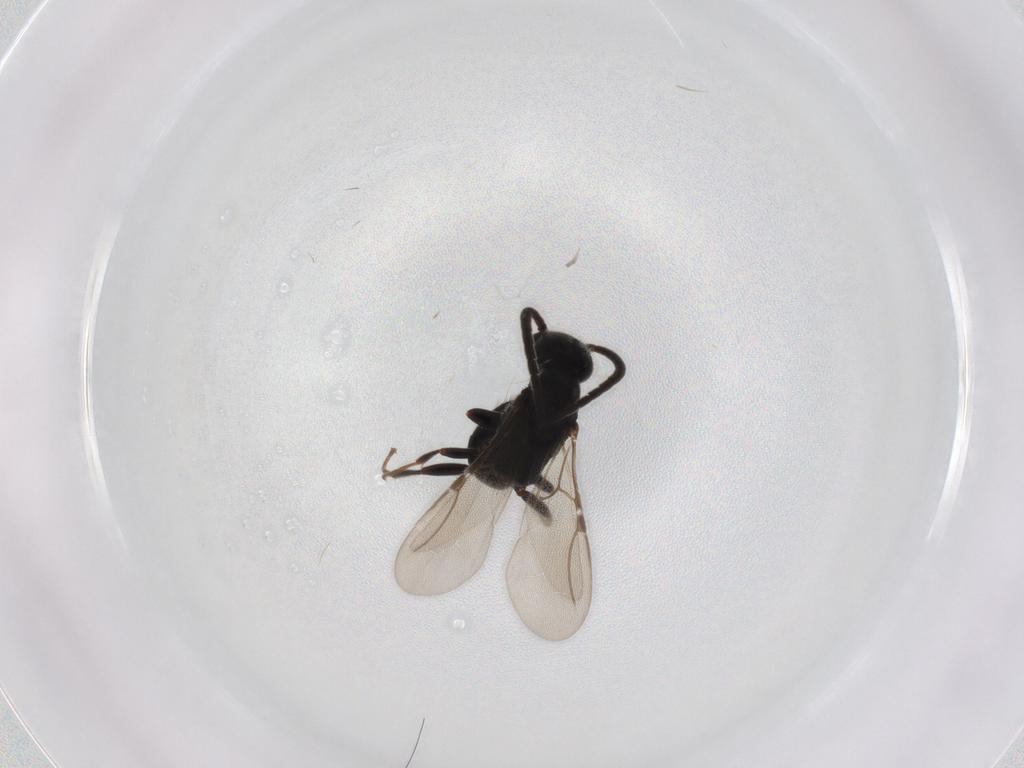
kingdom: Animalia
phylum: Arthropoda
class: Insecta
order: Hymenoptera
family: Bethylidae
